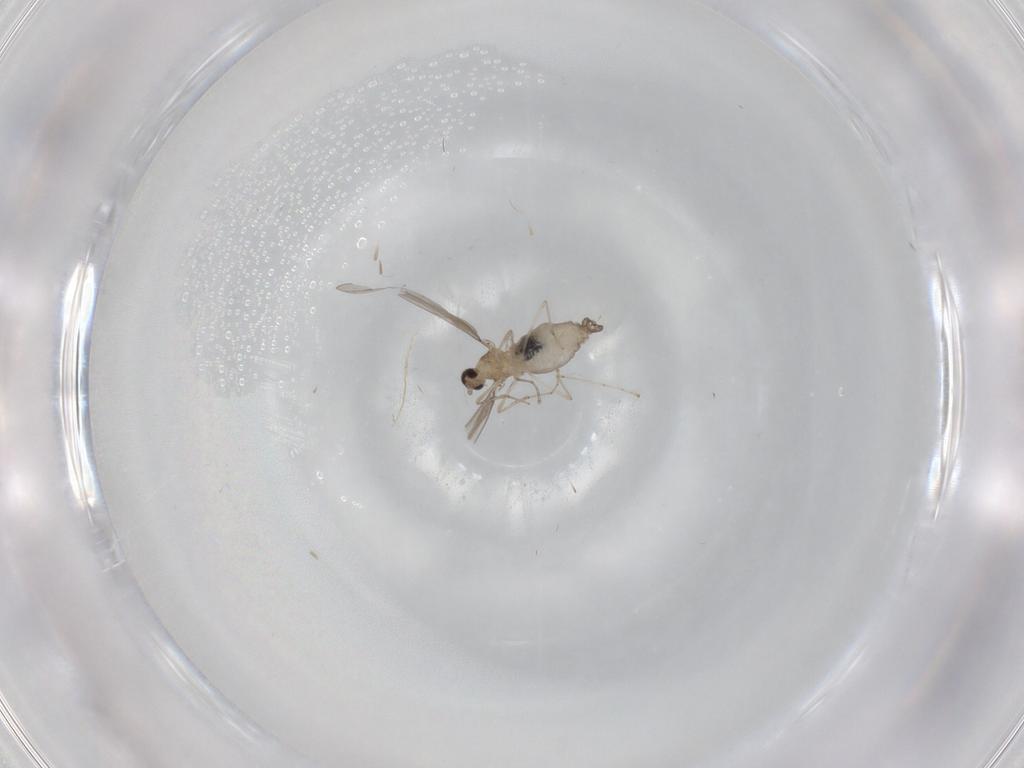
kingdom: Animalia
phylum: Arthropoda
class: Insecta
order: Diptera
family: Cecidomyiidae
